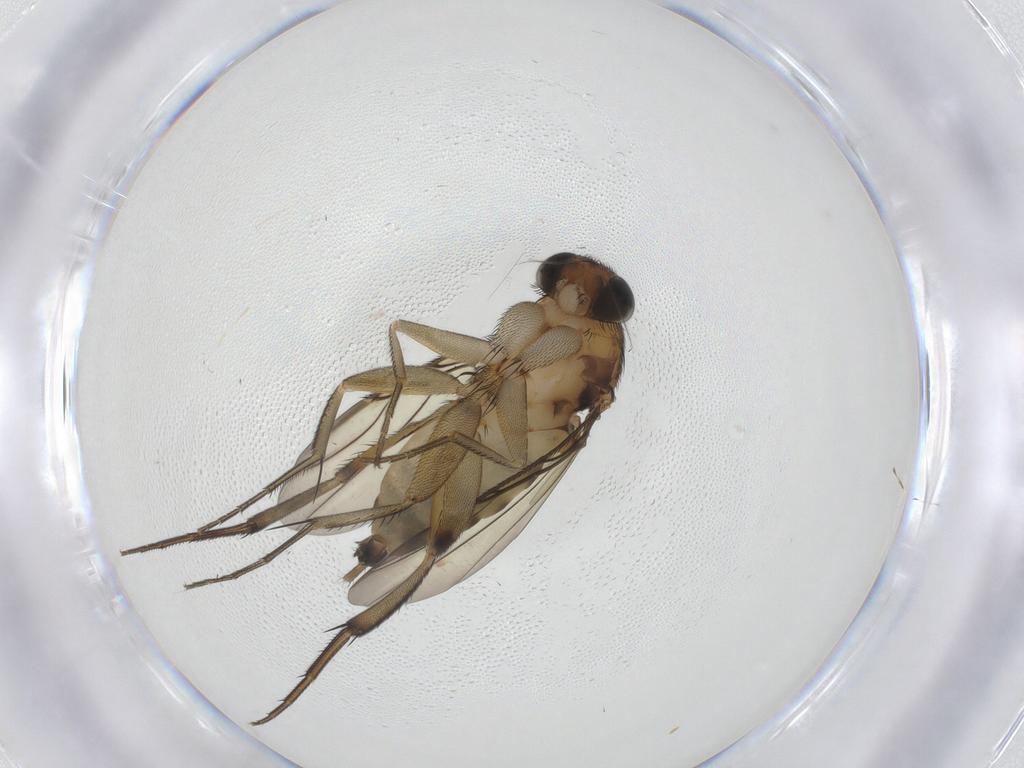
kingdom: Animalia
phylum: Arthropoda
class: Insecta
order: Diptera
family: Phoridae
